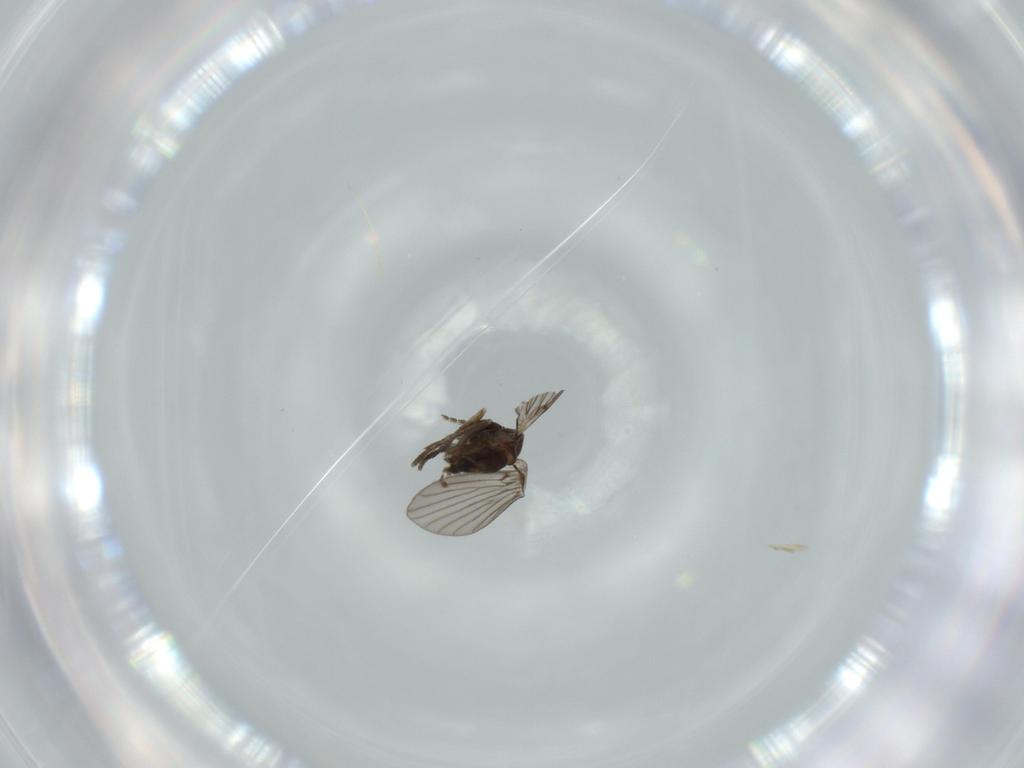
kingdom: Animalia
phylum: Arthropoda
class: Insecta
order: Diptera
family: Psychodidae
